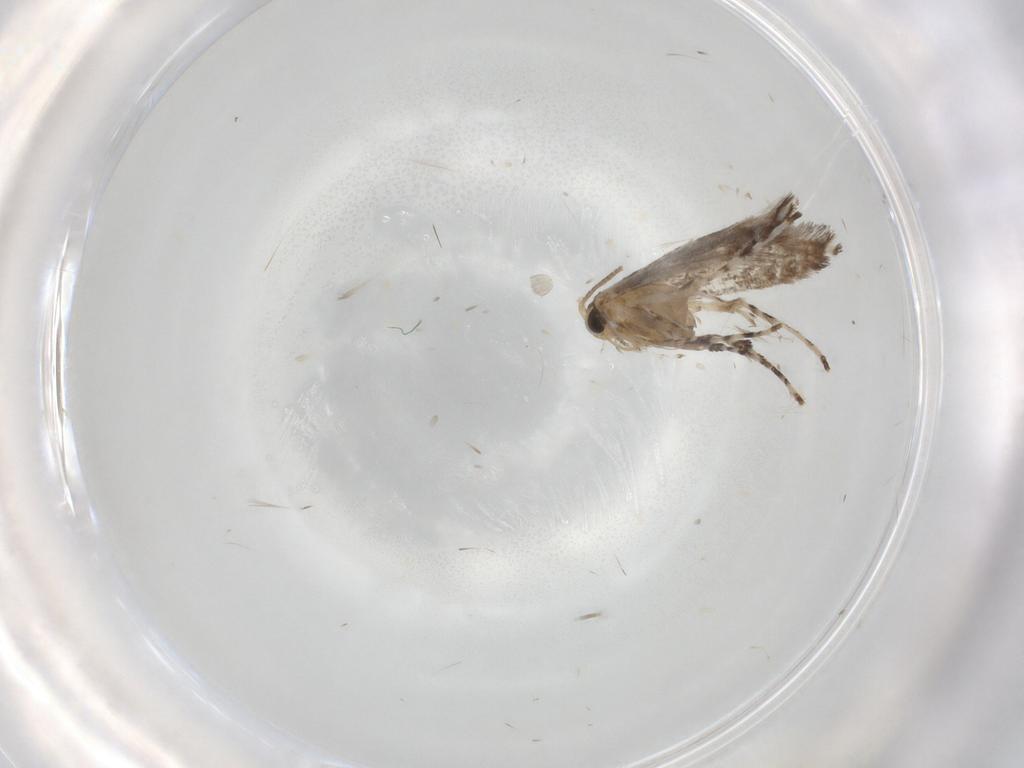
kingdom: Animalia
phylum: Arthropoda
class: Insecta
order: Lepidoptera
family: Gracillariidae
